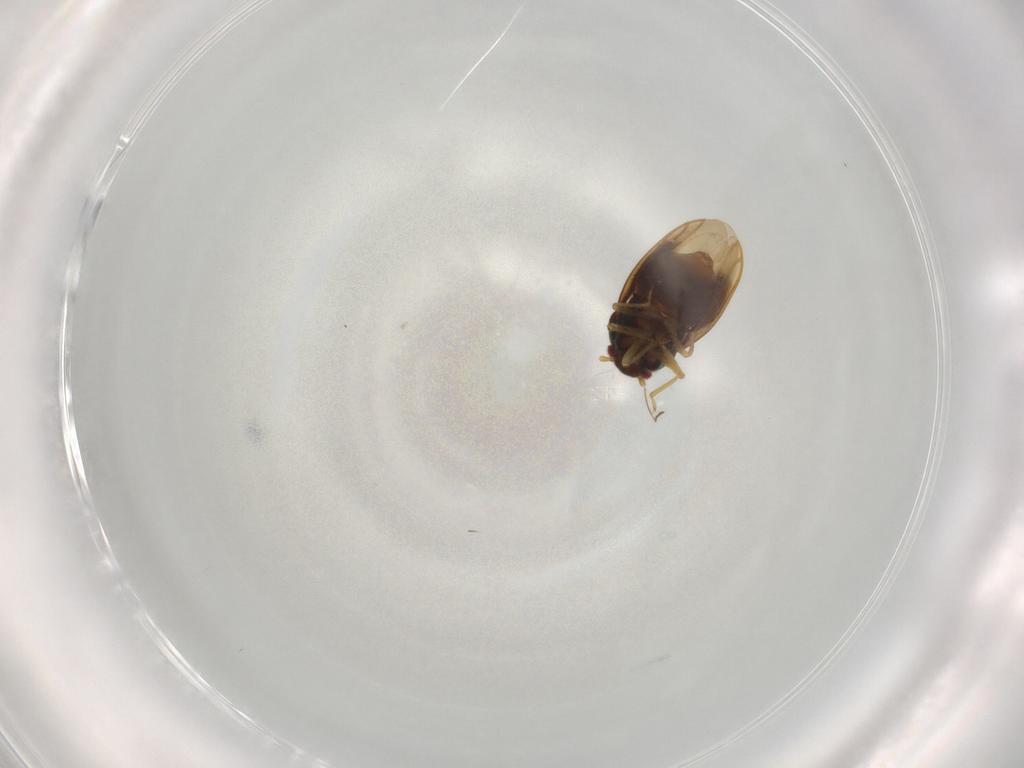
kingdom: Animalia
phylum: Arthropoda
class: Insecta
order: Hemiptera
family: Schizopteridae
